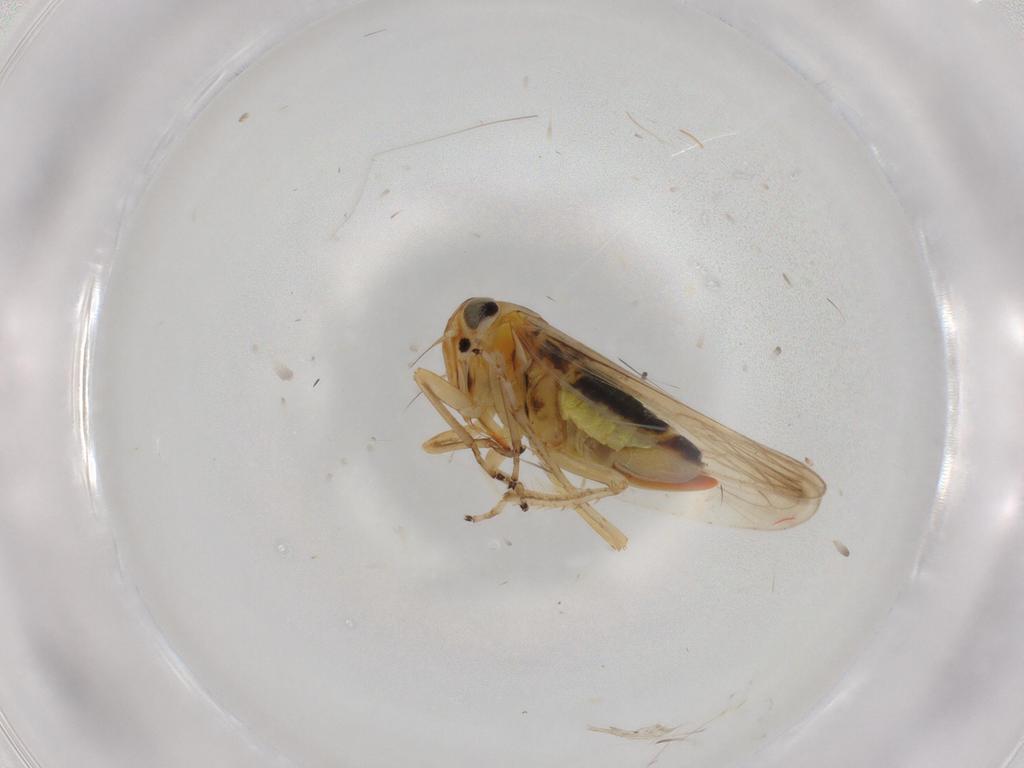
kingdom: Animalia
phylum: Arthropoda
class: Insecta
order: Hemiptera
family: Cicadellidae
